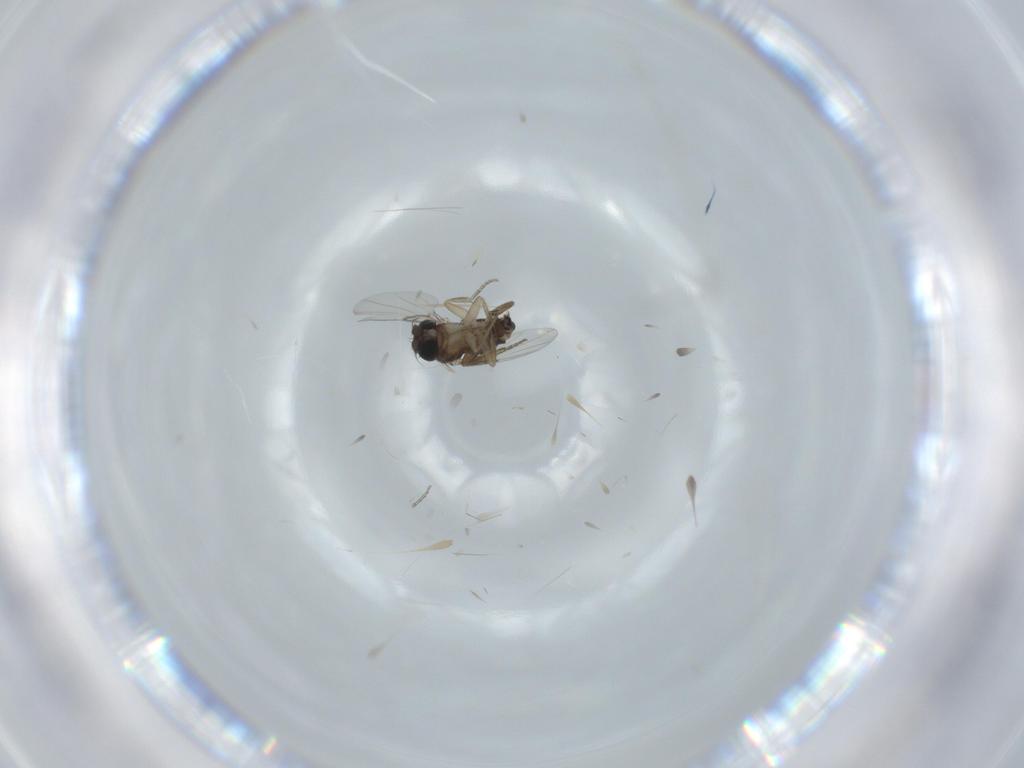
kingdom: Animalia
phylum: Arthropoda
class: Insecta
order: Diptera
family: Phoridae
